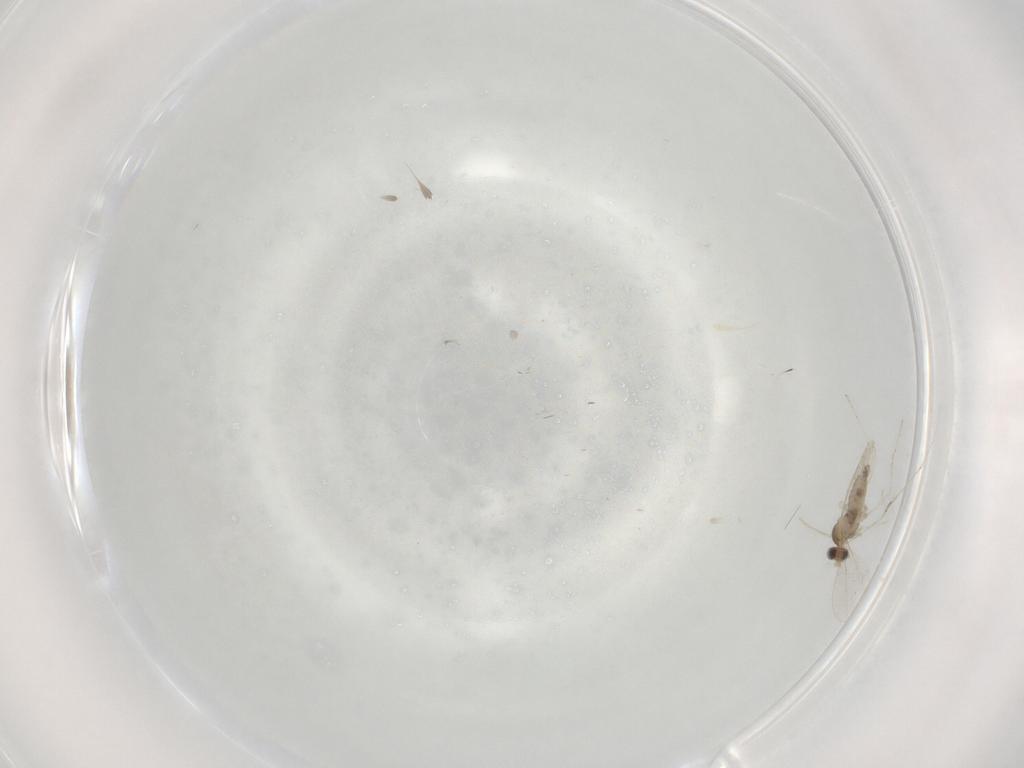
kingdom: Animalia
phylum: Arthropoda
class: Insecta
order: Diptera
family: Cecidomyiidae
